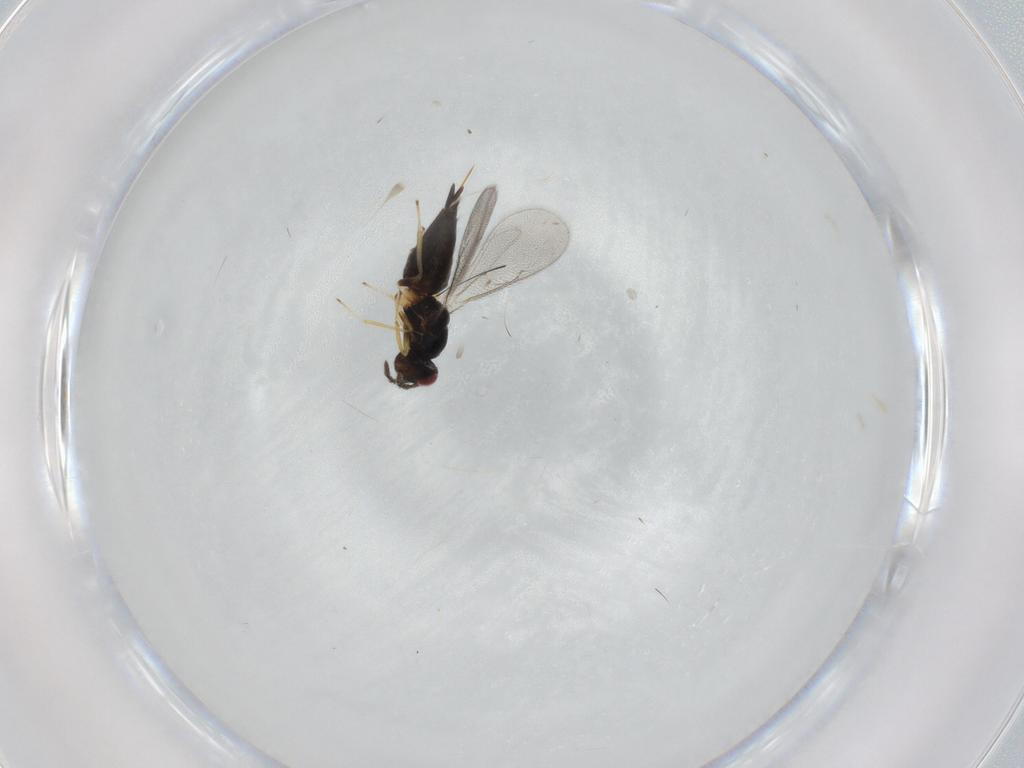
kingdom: Animalia
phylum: Arthropoda
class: Insecta
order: Hymenoptera
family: Eulophidae
